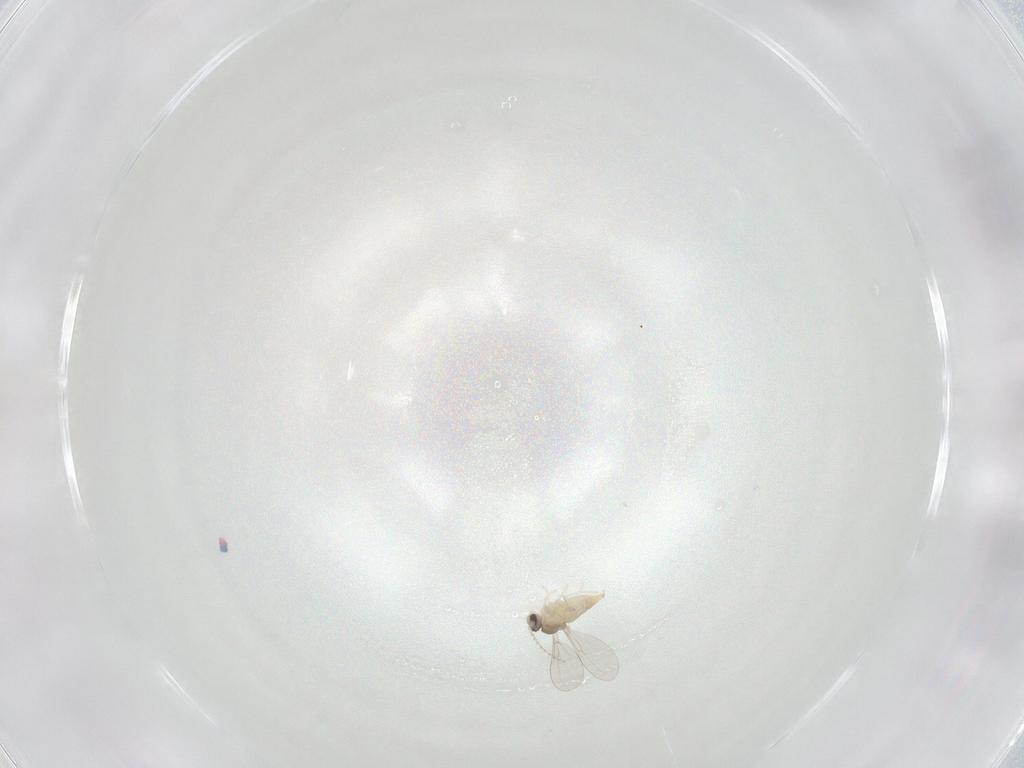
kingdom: Animalia
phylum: Arthropoda
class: Insecta
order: Diptera
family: Cecidomyiidae
